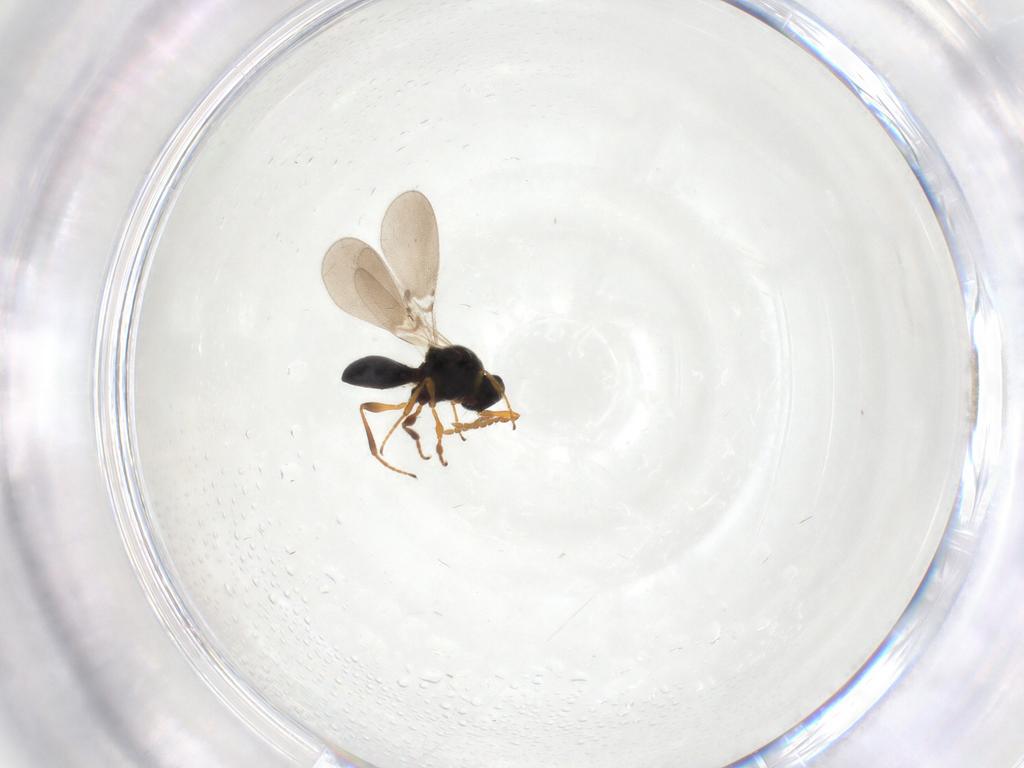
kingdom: Animalia
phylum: Arthropoda
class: Insecta
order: Hymenoptera
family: Platygastridae
